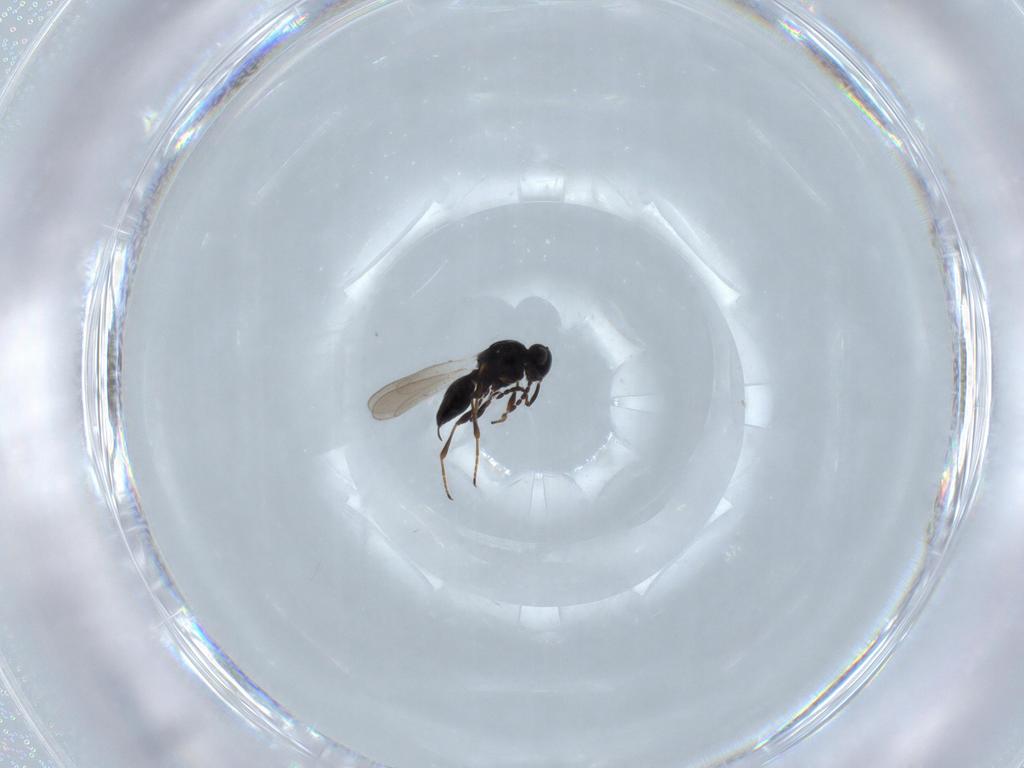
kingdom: Animalia
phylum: Arthropoda
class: Insecta
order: Hymenoptera
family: Platygastridae
